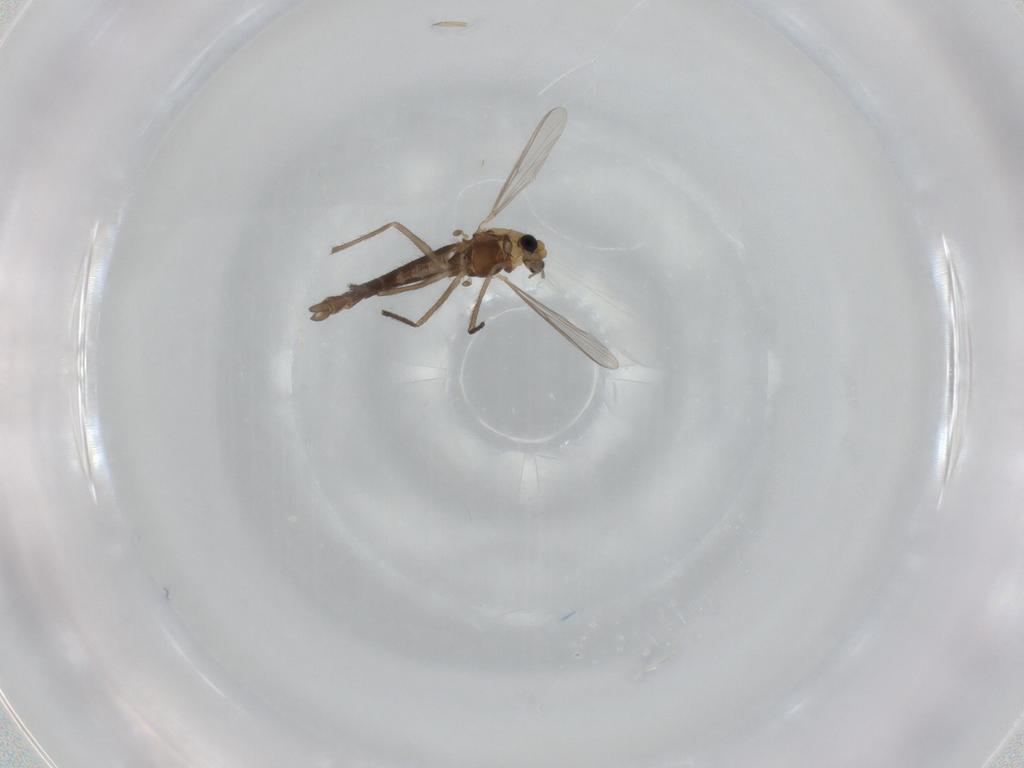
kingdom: Animalia
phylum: Arthropoda
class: Insecta
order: Diptera
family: Chironomidae
